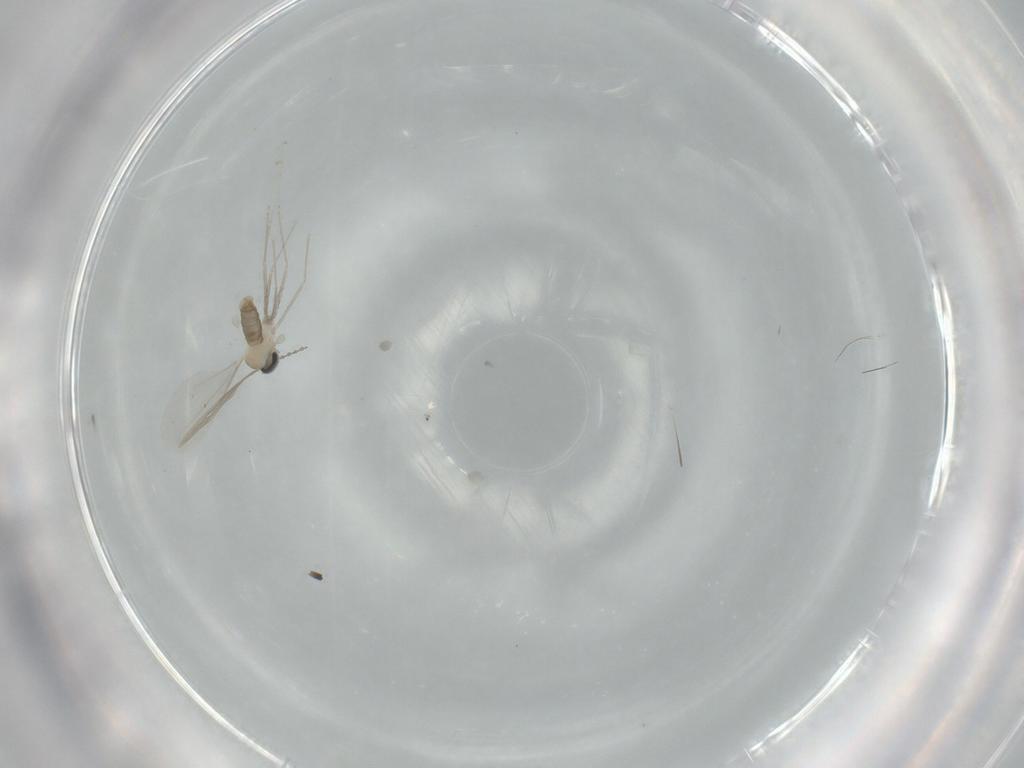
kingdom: Animalia
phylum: Arthropoda
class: Insecta
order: Diptera
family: Cecidomyiidae
